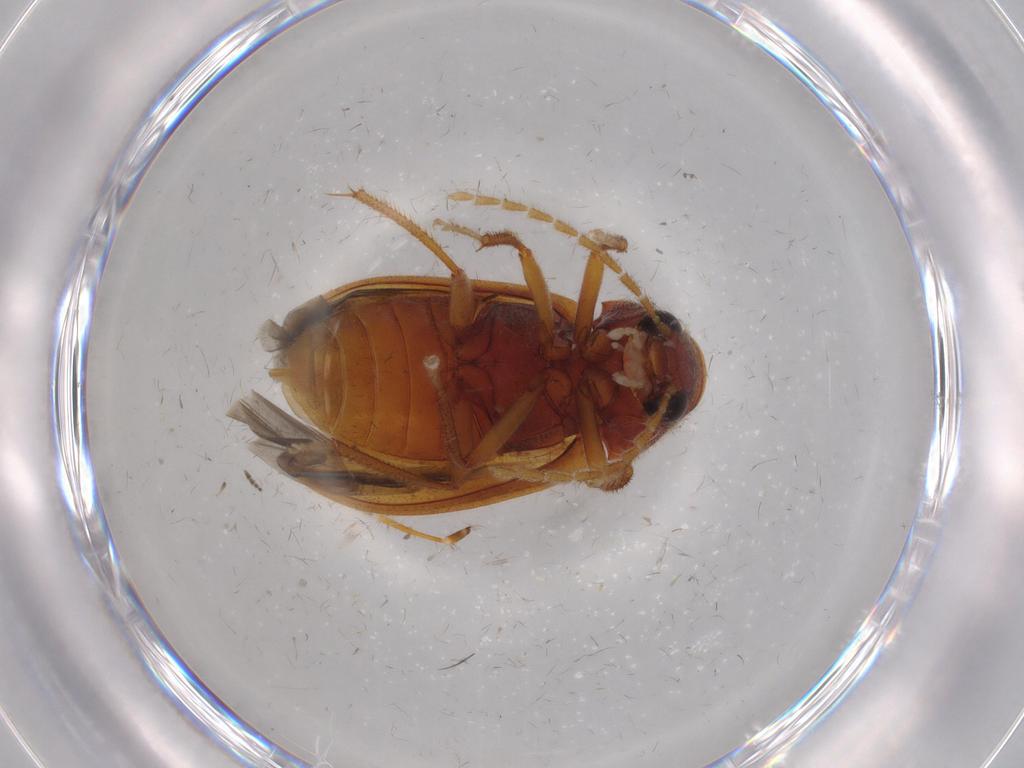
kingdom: Animalia
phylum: Arthropoda
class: Insecta
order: Coleoptera
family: Ptilodactylidae
